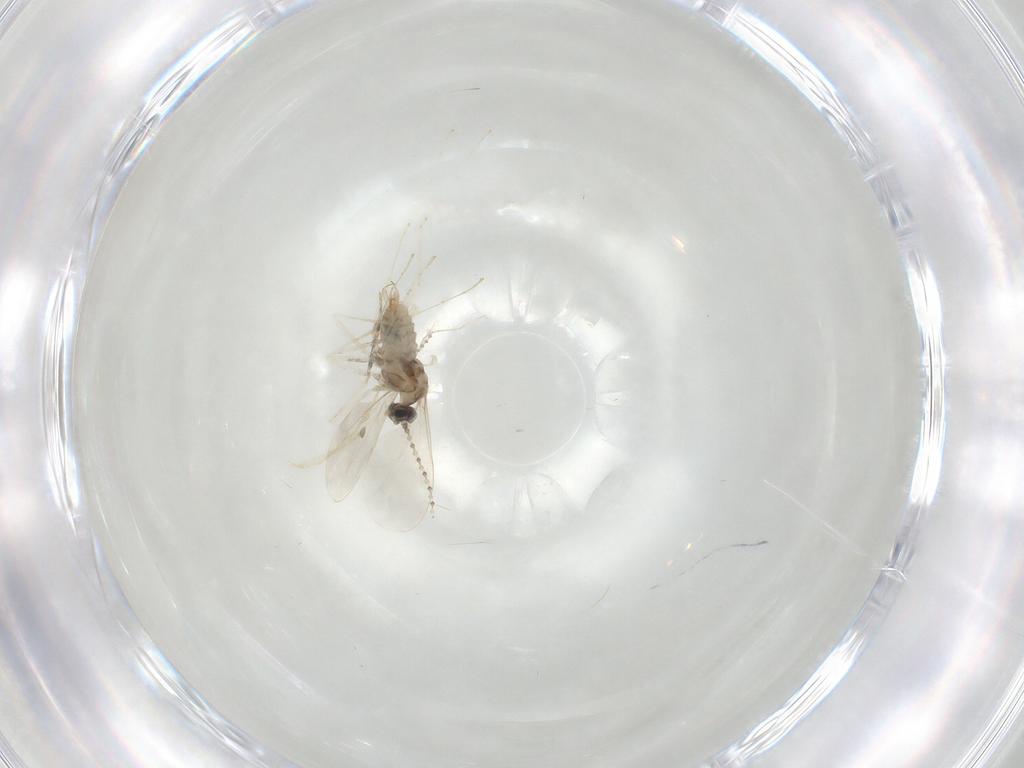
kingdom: Animalia
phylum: Arthropoda
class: Insecta
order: Diptera
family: Cecidomyiidae
